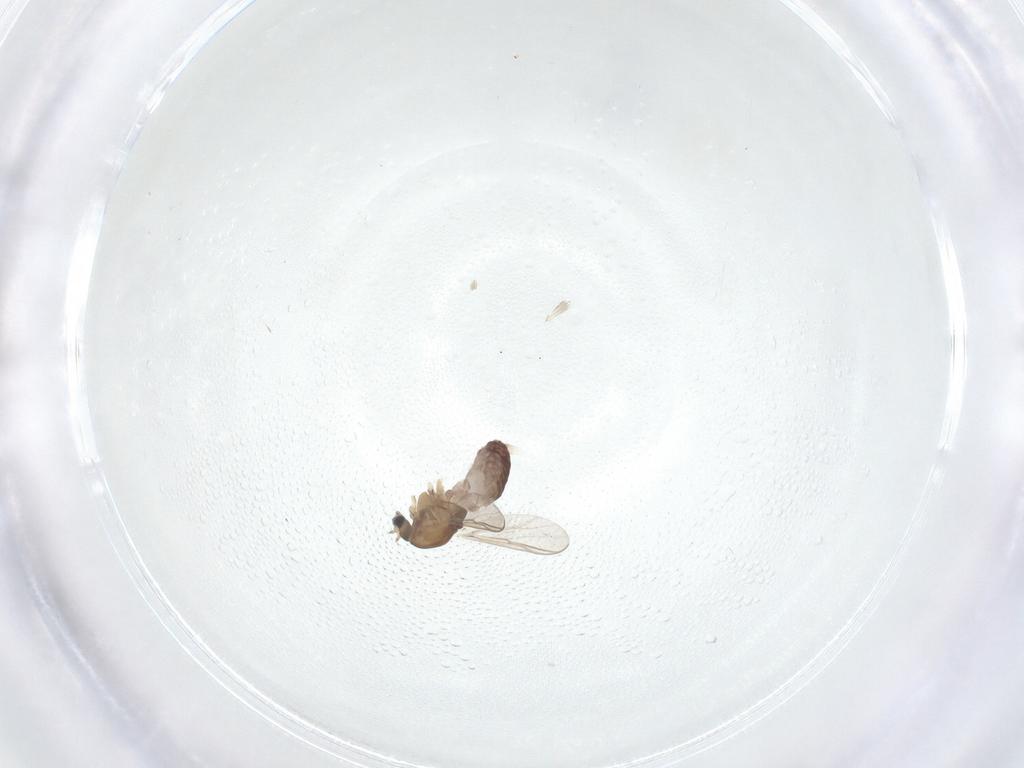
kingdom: Animalia
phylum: Arthropoda
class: Insecta
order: Diptera
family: Chironomidae
